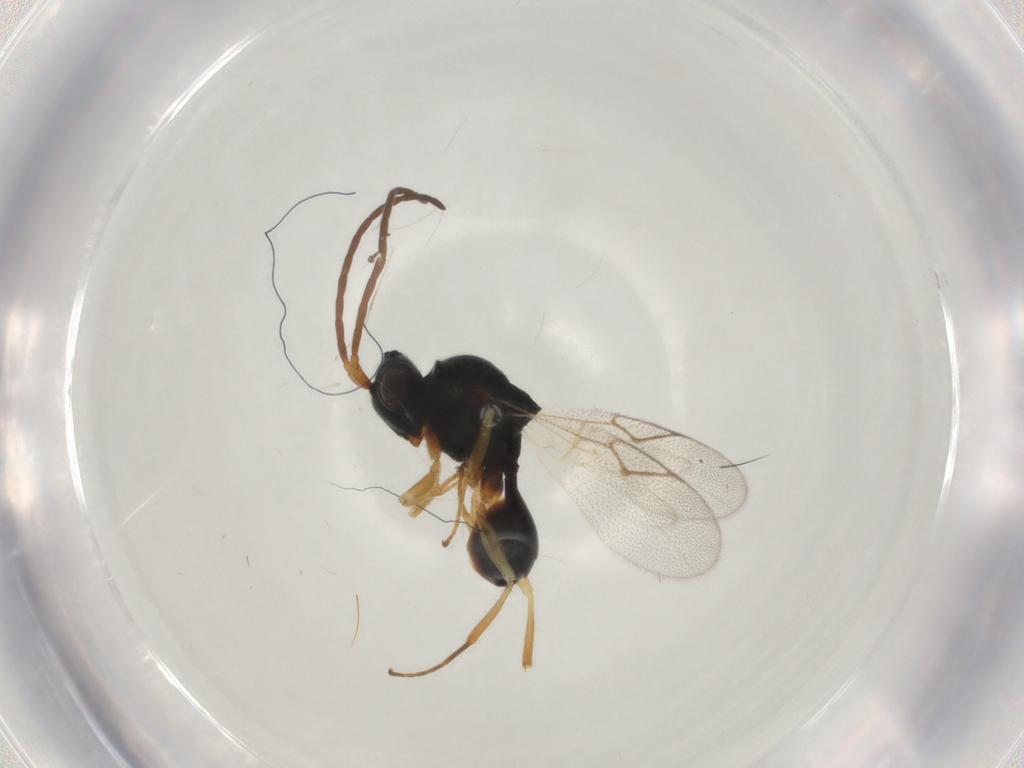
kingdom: Animalia
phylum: Arthropoda
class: Insecta
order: Hymenoptera
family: Figitidae
